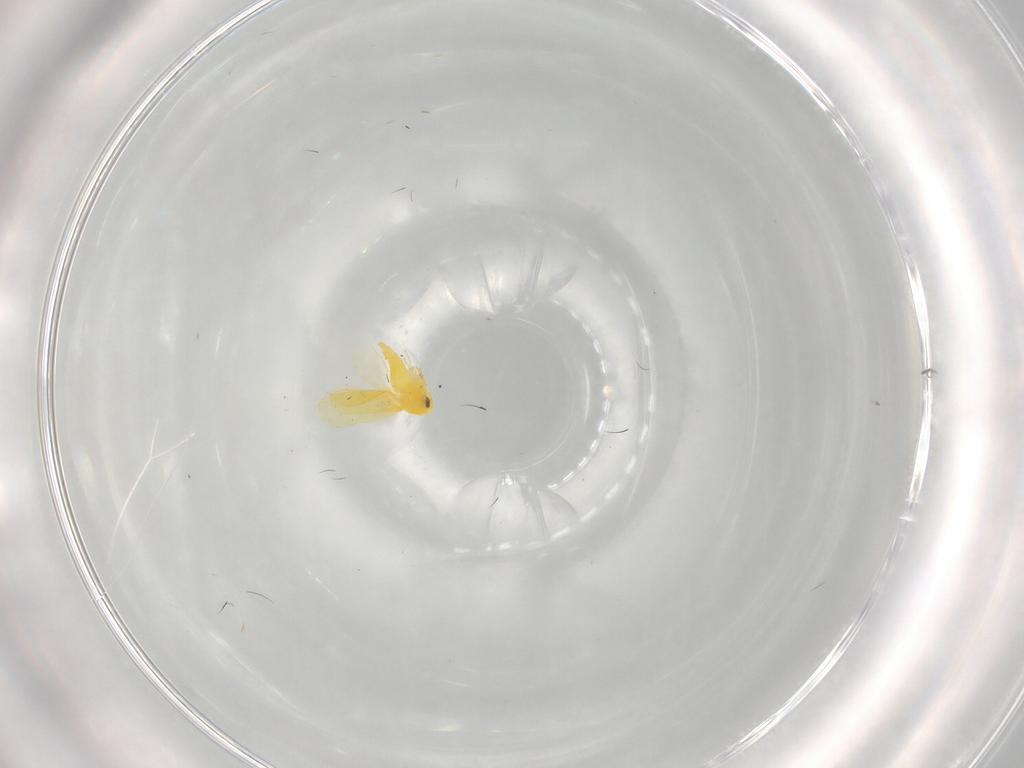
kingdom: Animalia
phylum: Arthropoda
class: Insecta
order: Hemiptera
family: Aleyrodidae
